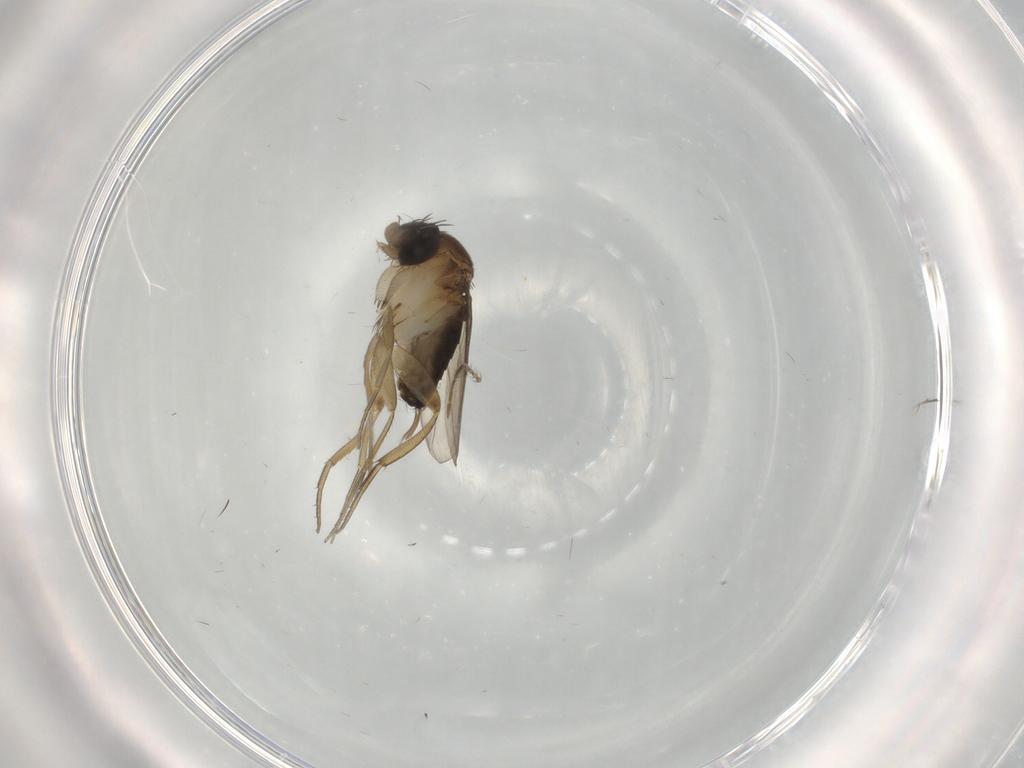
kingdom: Animalia
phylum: Arthropoda
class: Insecta
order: Diptera
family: Phoridae
